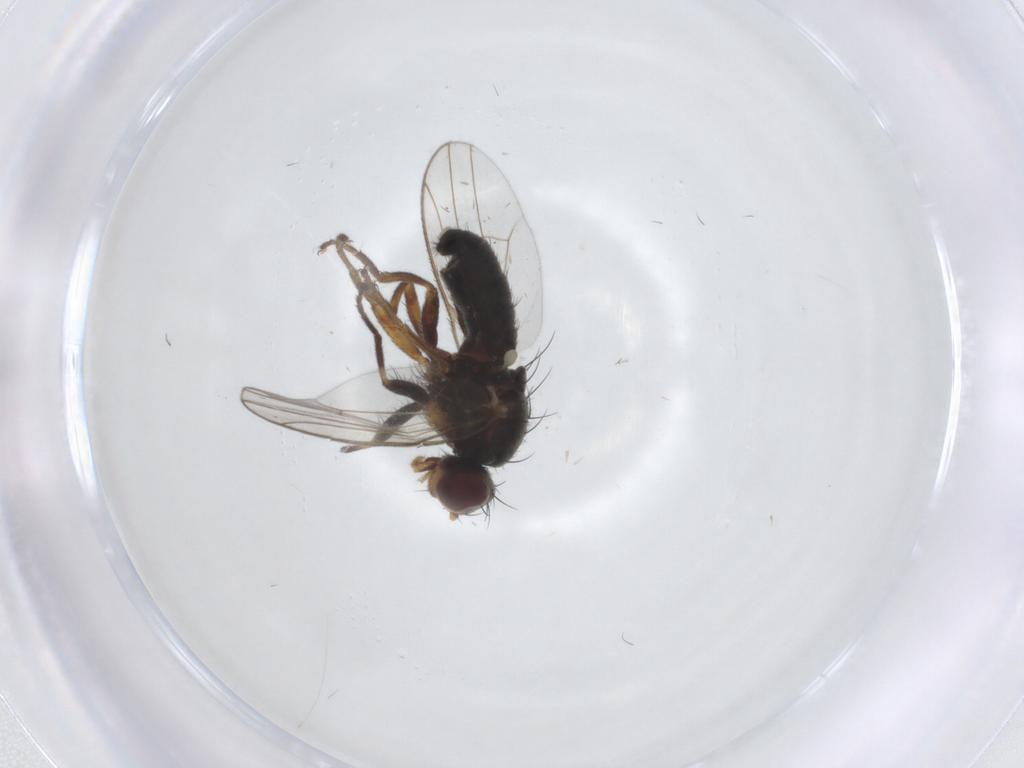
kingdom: Animalia
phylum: Arthropoda
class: Insecta
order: Diptera
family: Heleomyzidae
